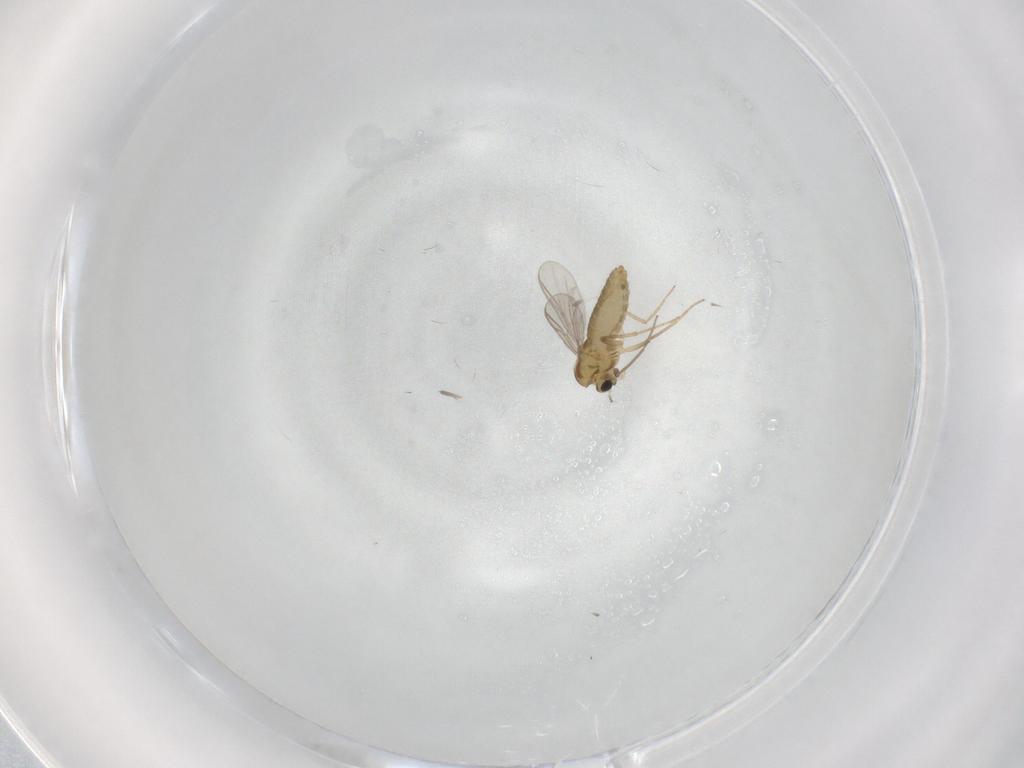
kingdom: Animalia
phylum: Arthropoda
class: Insecta
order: Diptera
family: Chironomidae
